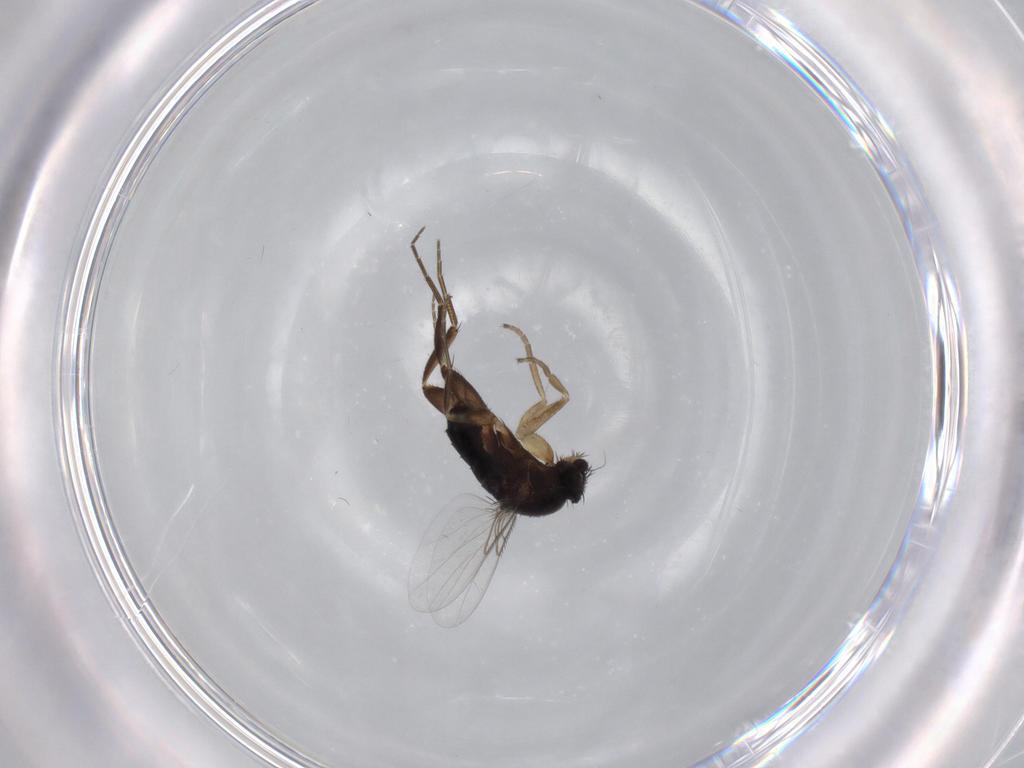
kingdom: Animalia
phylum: Arthropoda
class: Insecta
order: Diptera
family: Phoridae
